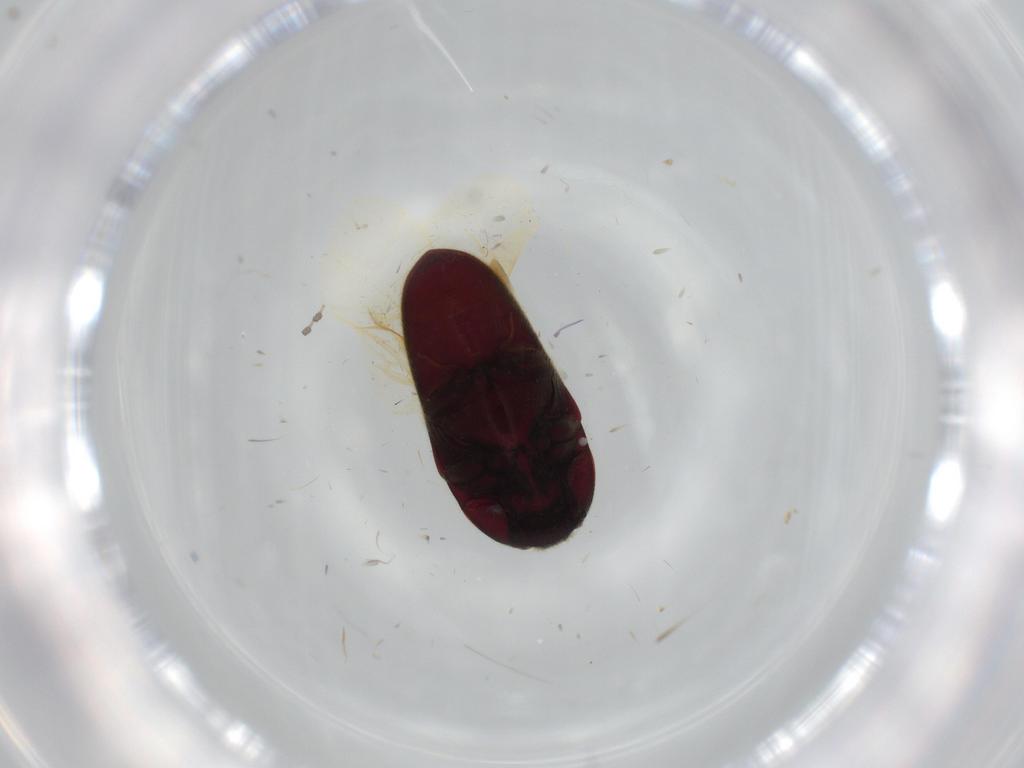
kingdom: Animalia
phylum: Arthropoda
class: Insecta
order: Coleoptera
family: Throscidae
